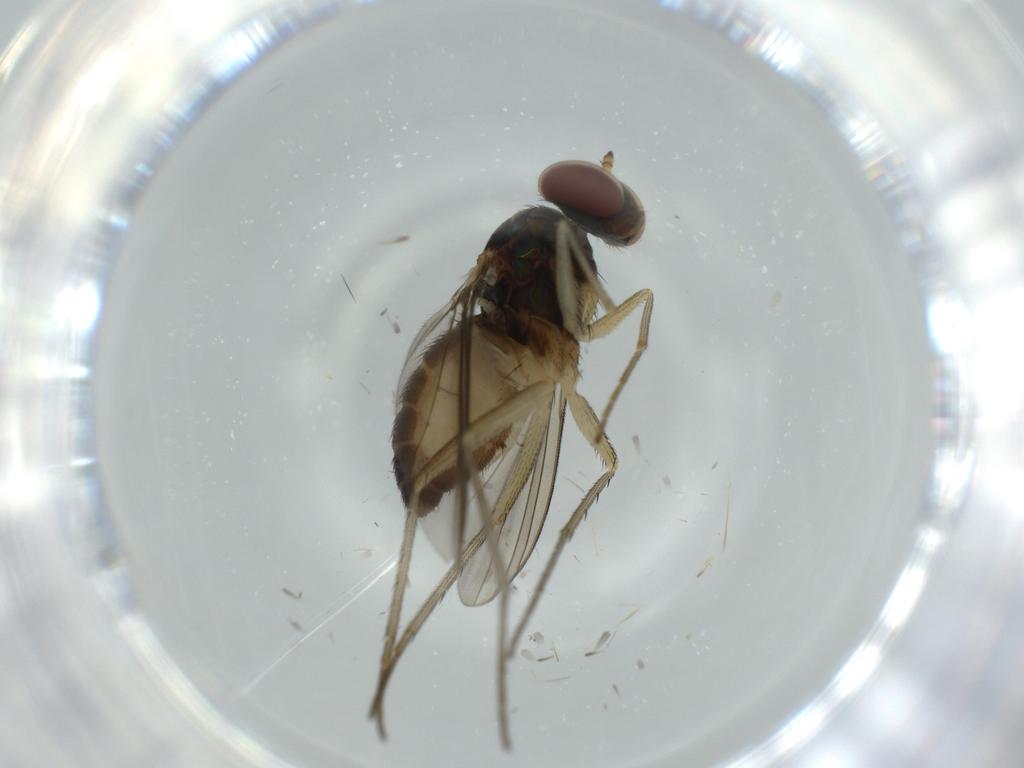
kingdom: Animalia
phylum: Arthropoda
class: Insecta
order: Diptera
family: Dolichopodidae
